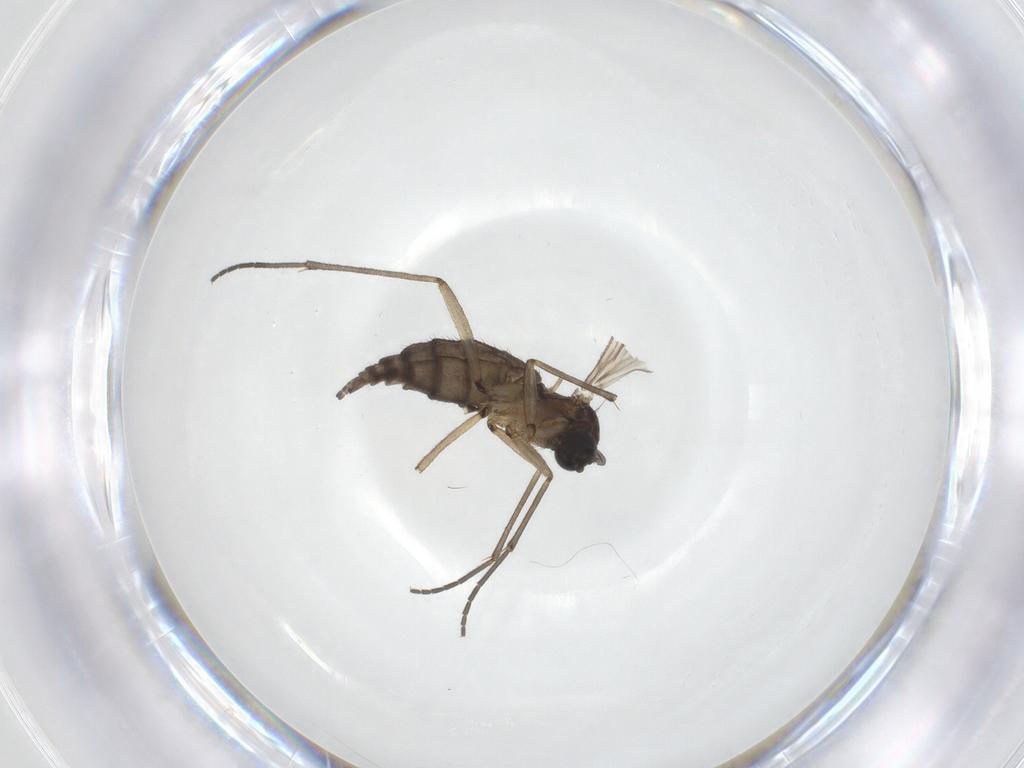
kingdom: Animalia
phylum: Arthropoda
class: Insecta
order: Diptera
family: Sciaridae
